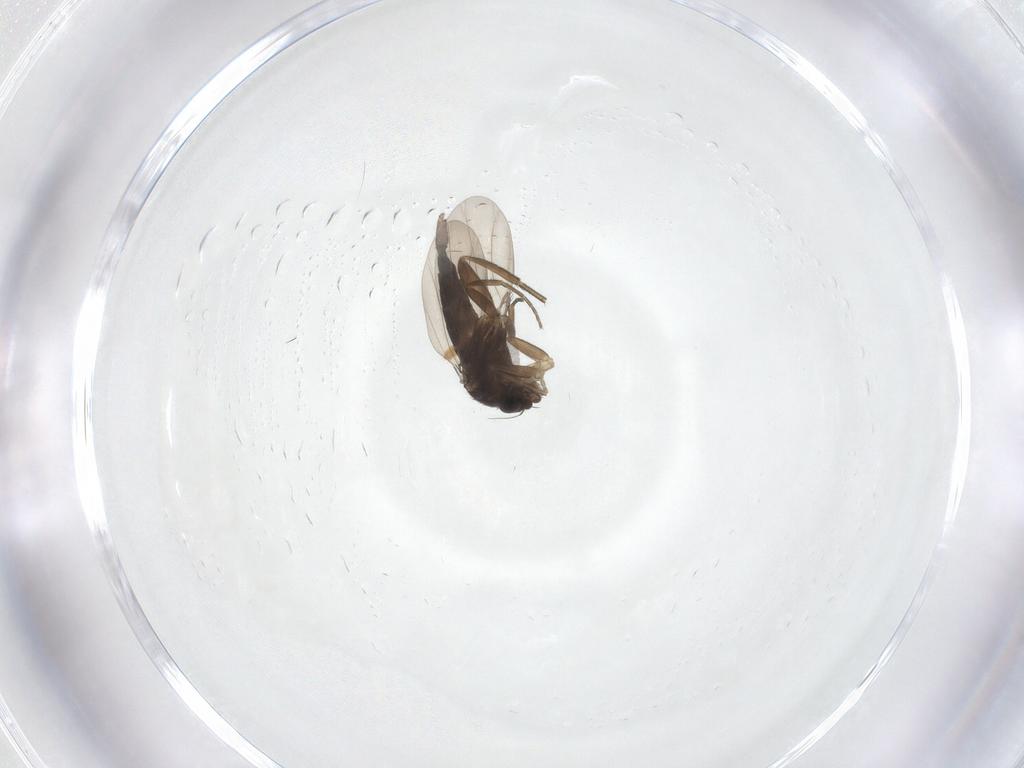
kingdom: Animalia
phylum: Arthropoda
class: Insecta
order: Diptera
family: Phoridae
